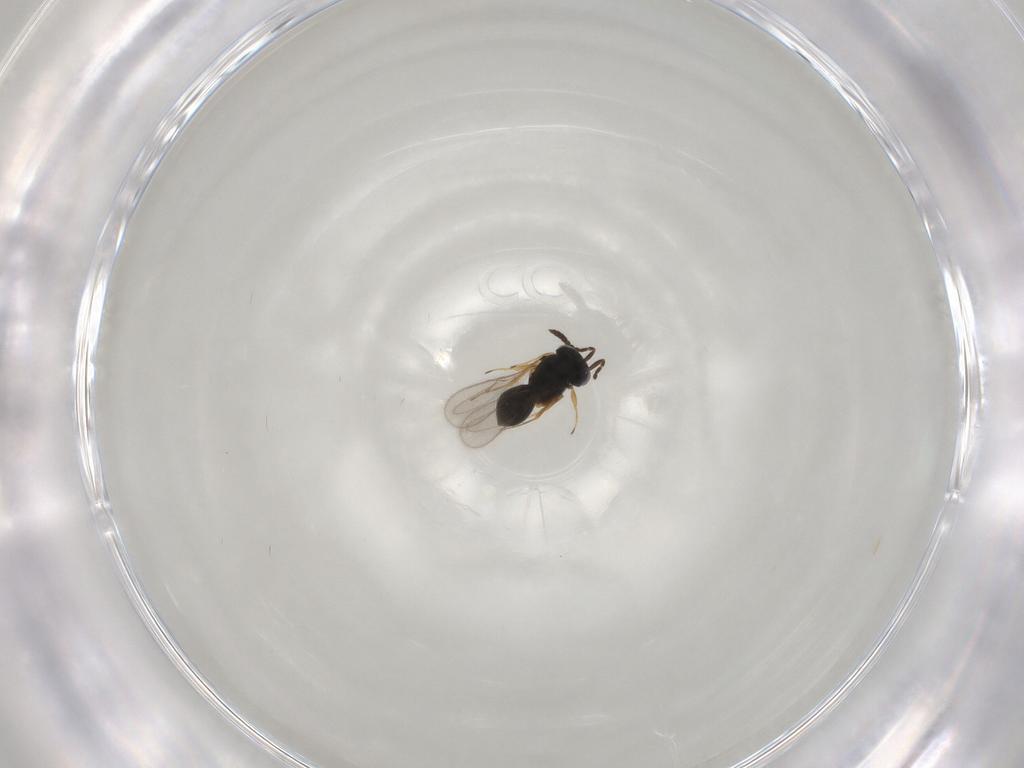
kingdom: Animalia
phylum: Arthropoda
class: Insecta
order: Hymenoptera
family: Scelionidae
